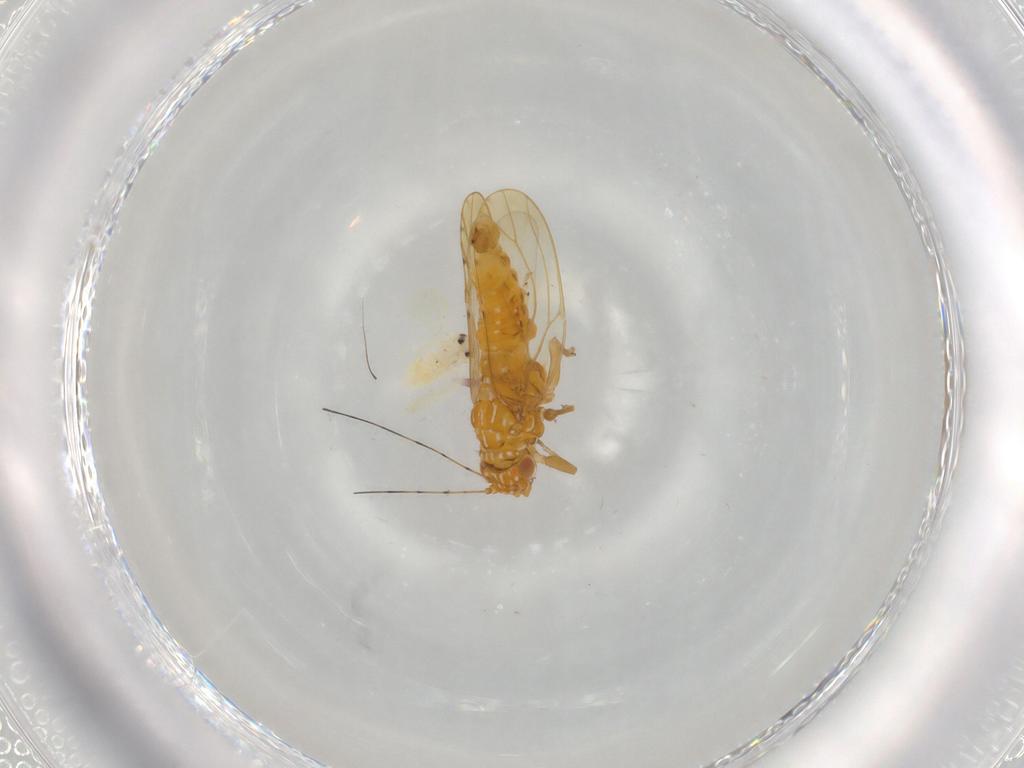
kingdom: Animalia
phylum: Arthropoda
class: Insecta
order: Hemiptera
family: Cicadellidae
